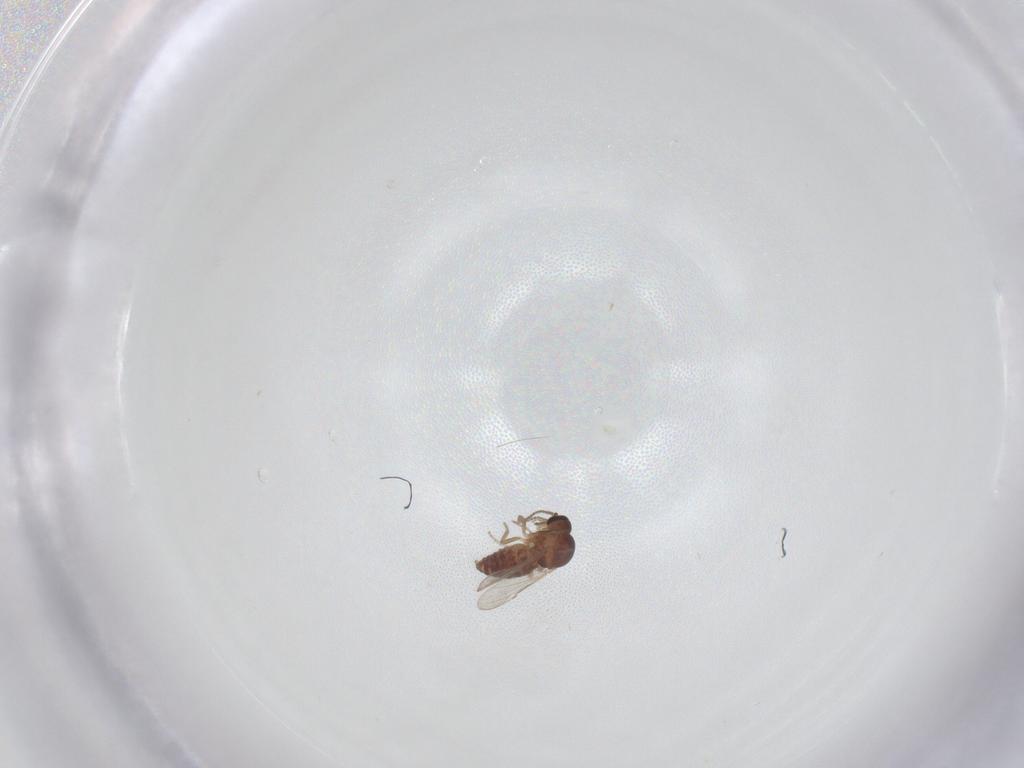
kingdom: Animalia
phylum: Arthropoda
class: Insecta
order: Diptera
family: Ceratopogonidae
